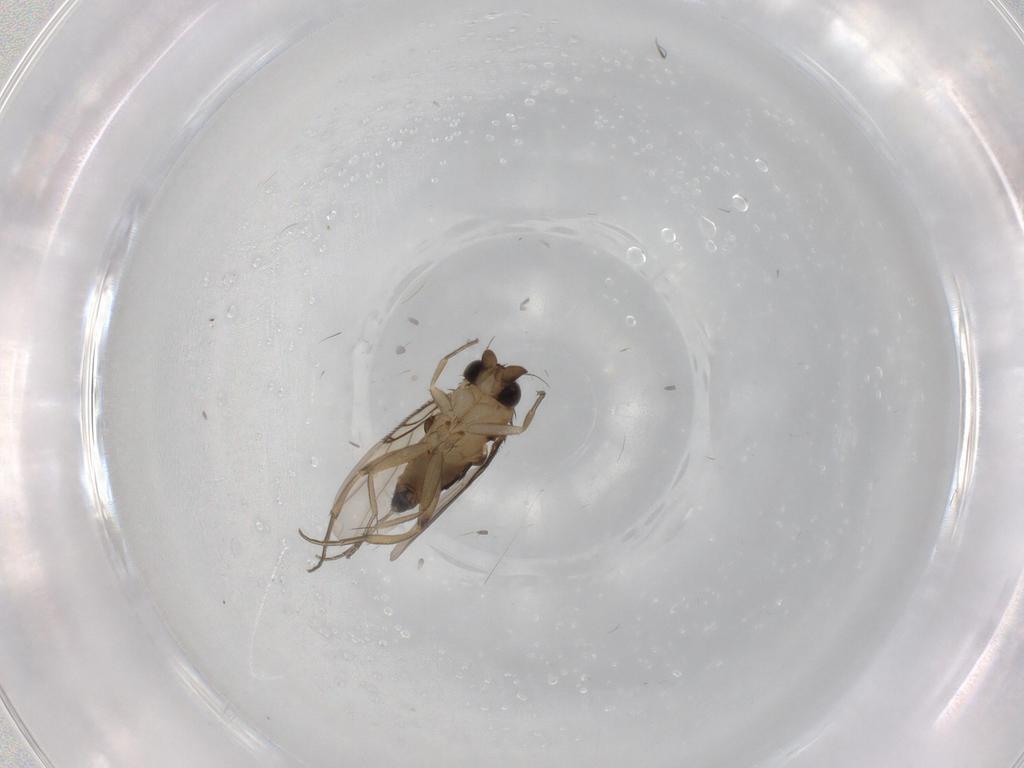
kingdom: Animalia
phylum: Arthropoda
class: Insecta
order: Diptera
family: Phoridae
